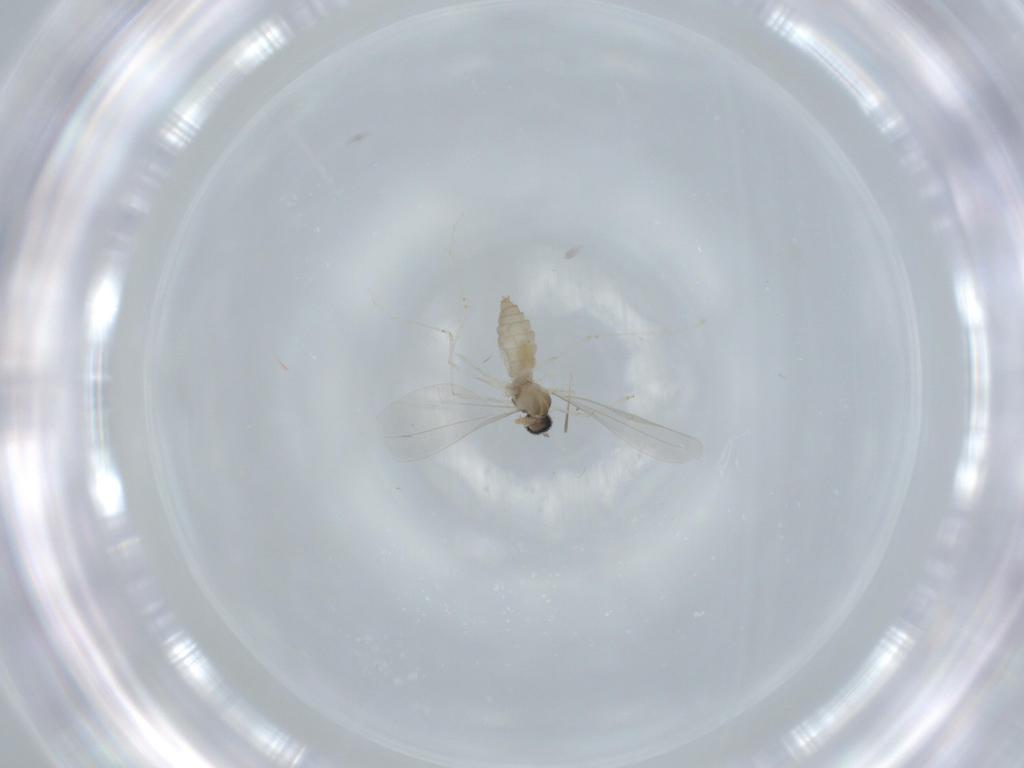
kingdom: Animalia
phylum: Arthropoda
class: Insecta
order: Diptera
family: Cecidomyiidae
